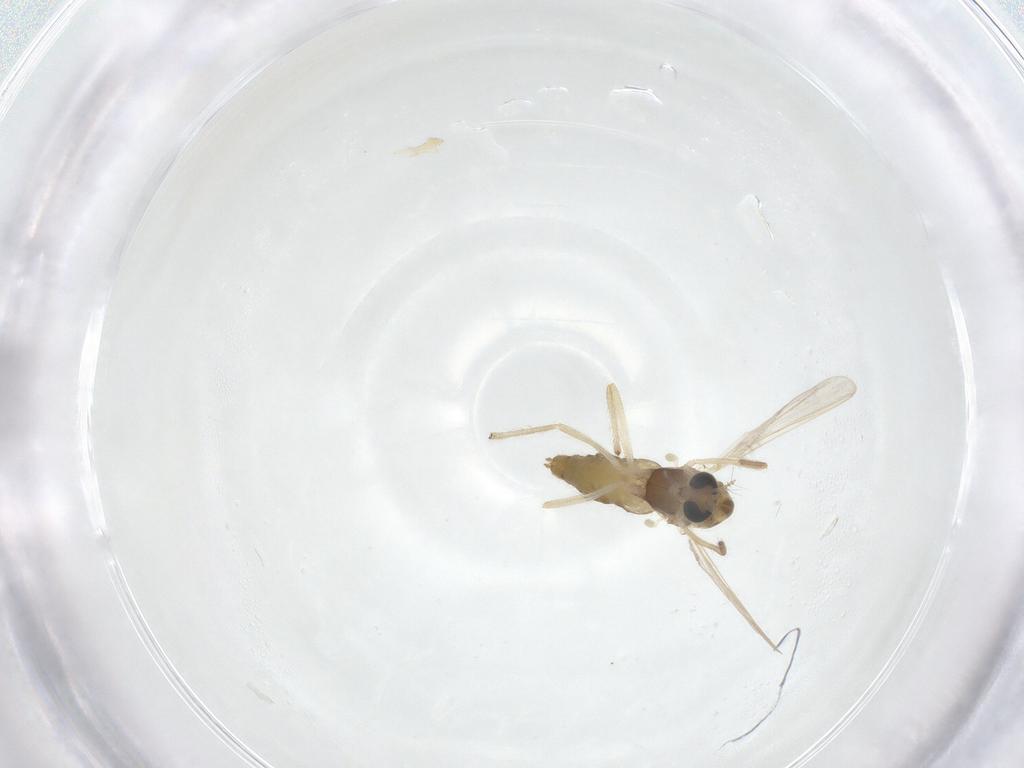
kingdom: Animalia
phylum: Arthropoda
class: Insecta
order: Diptera
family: Chironomidae
